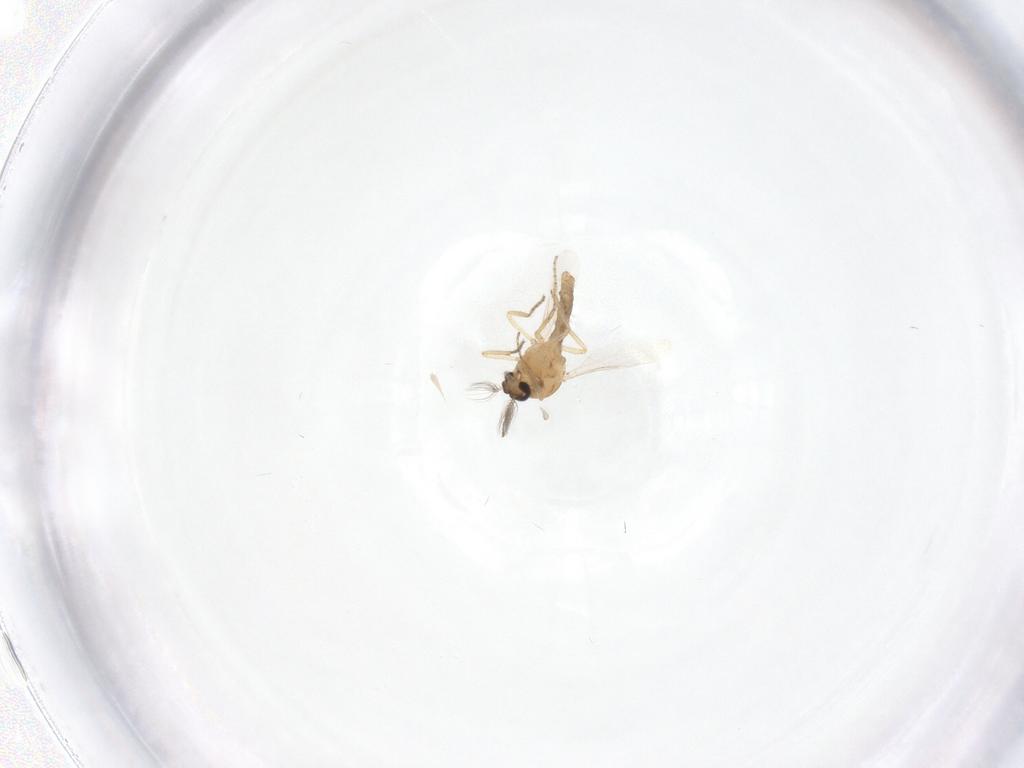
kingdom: Animalia
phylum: Arthropoda
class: Insecta
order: Diptera
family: Ceratopogonidae
